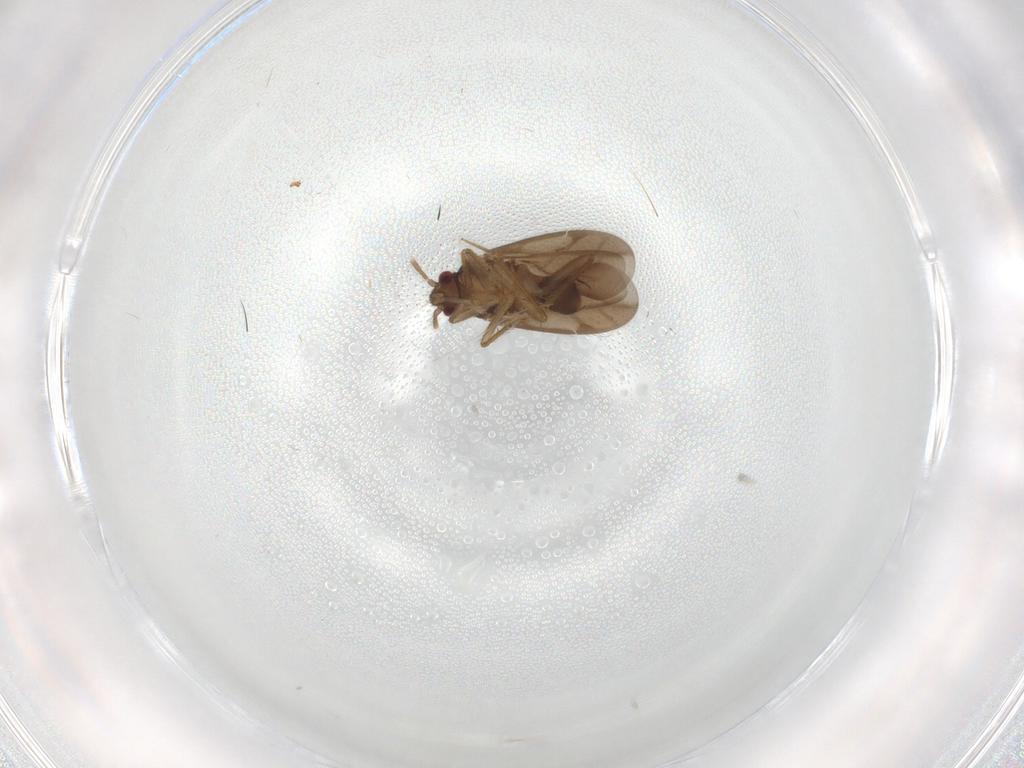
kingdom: Animalia
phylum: Arthropoda
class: Insecta
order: Hemiptera
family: Ceratocombidae
